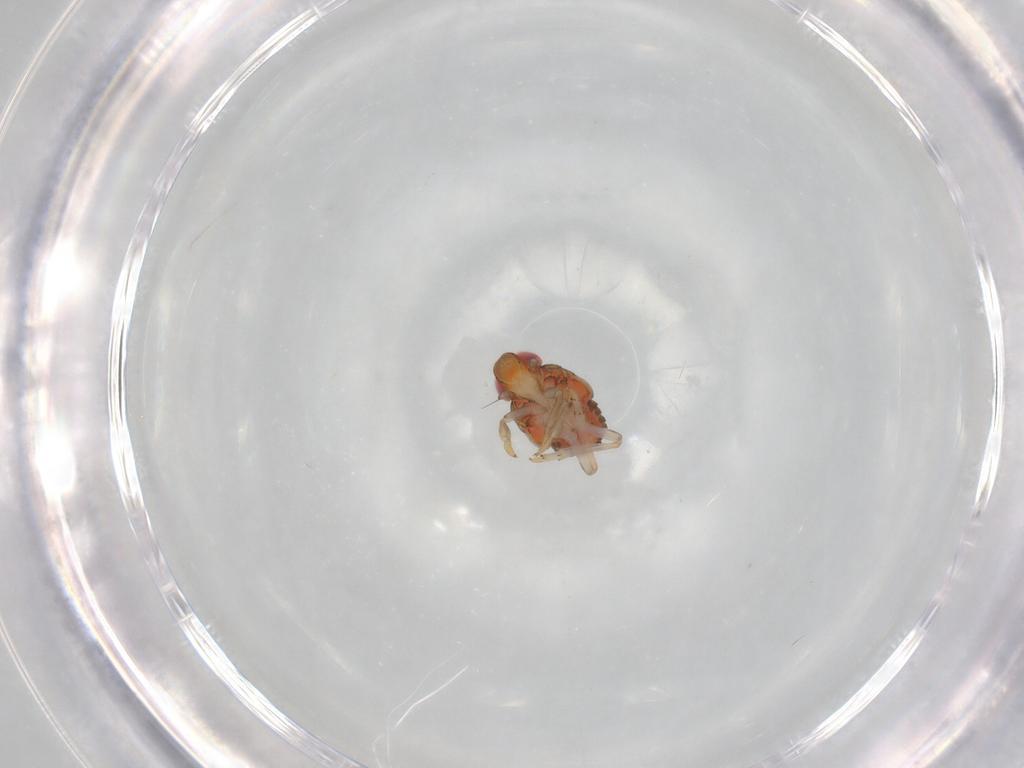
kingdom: Animalia
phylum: Arthropoda
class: Insecta
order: Hemiptera
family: Issidae
